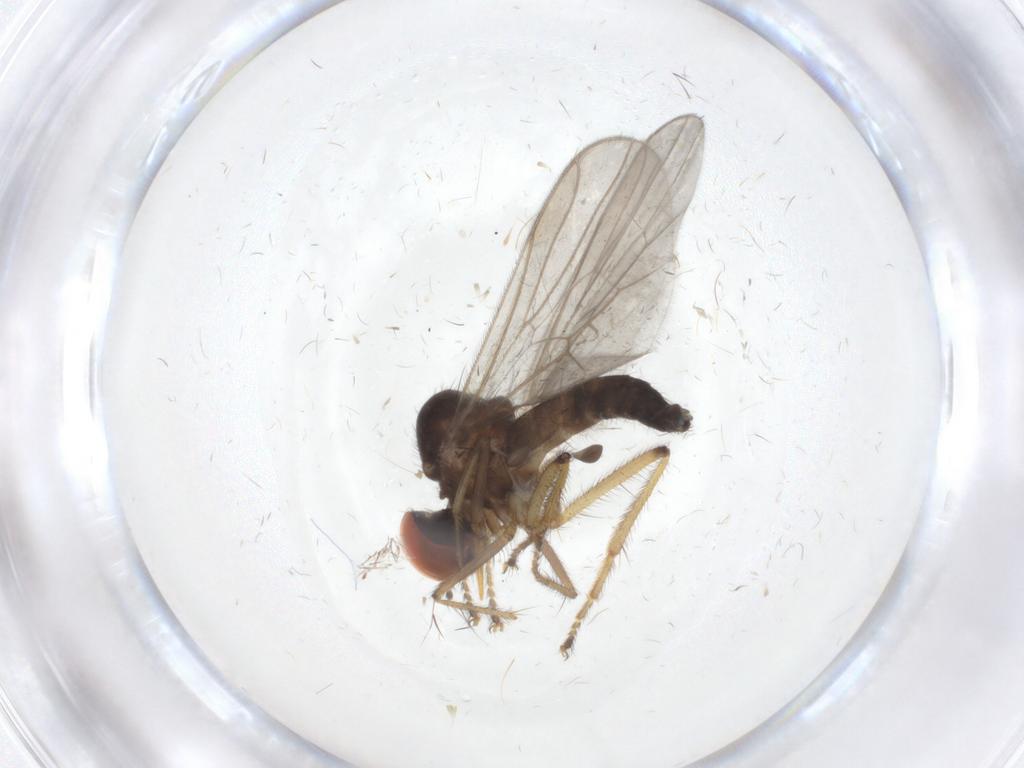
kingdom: Animalia
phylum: Arthropoda
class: Insecta
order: Diptera
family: Hybotidae
